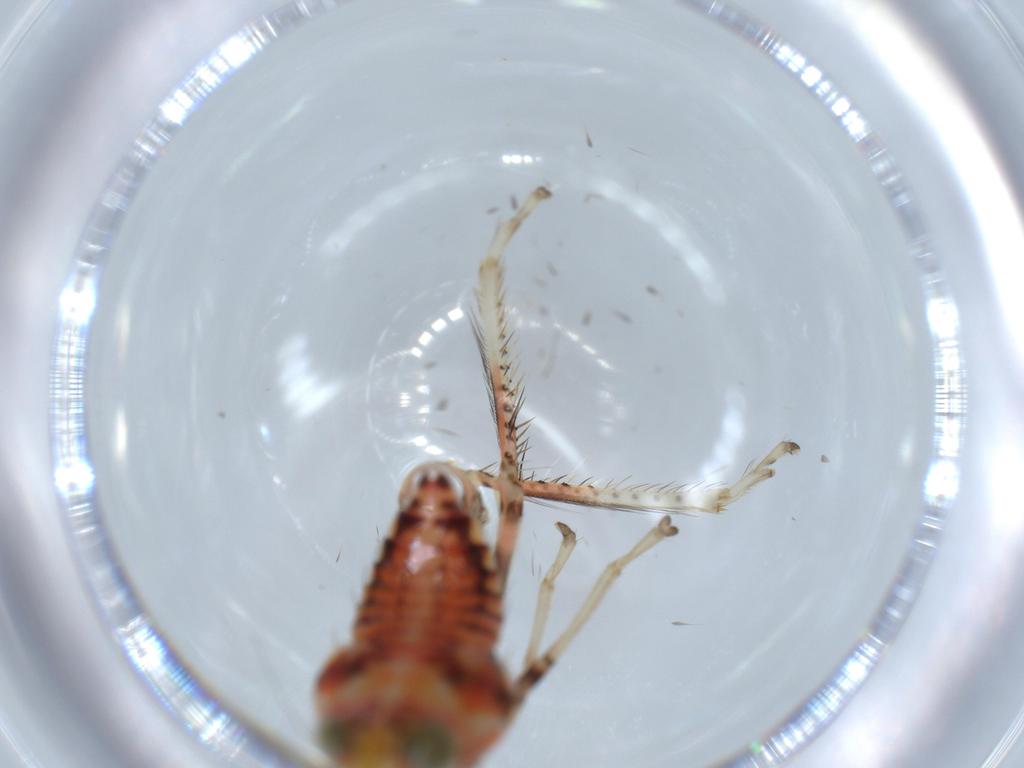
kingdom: Animalia
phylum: Arthropoda
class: Insecta
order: Hemiptera
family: Cicadellidae
